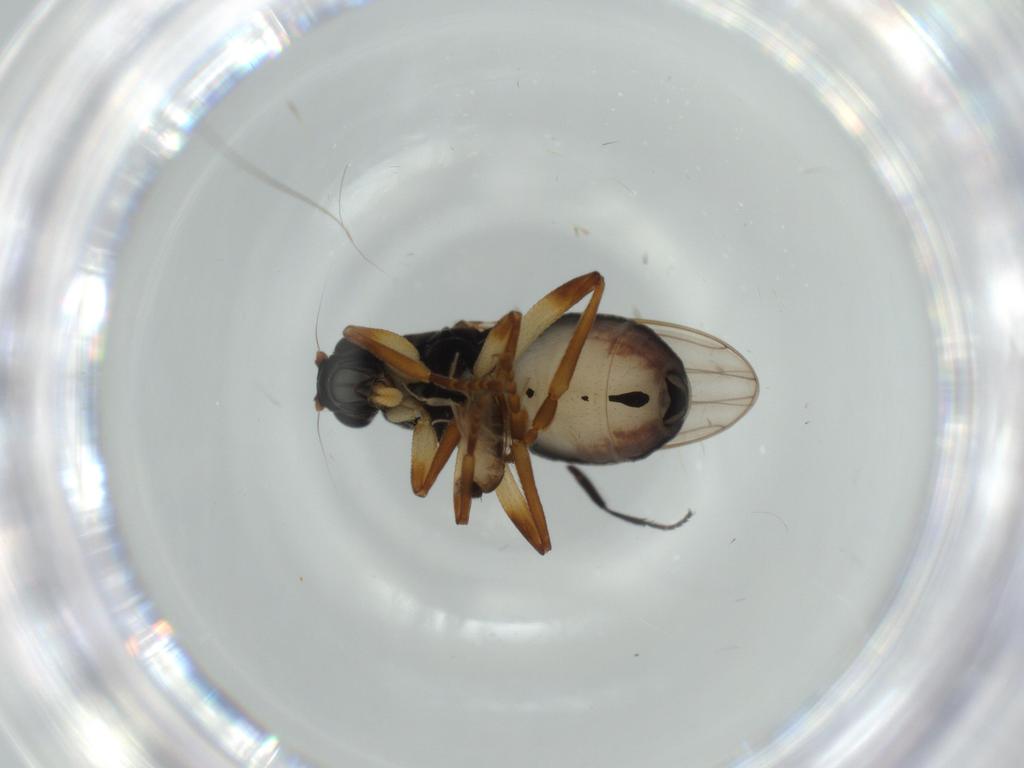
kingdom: Animalia
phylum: Arthropoda
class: Insecta
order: Diptera
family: Sphaeroceridae
